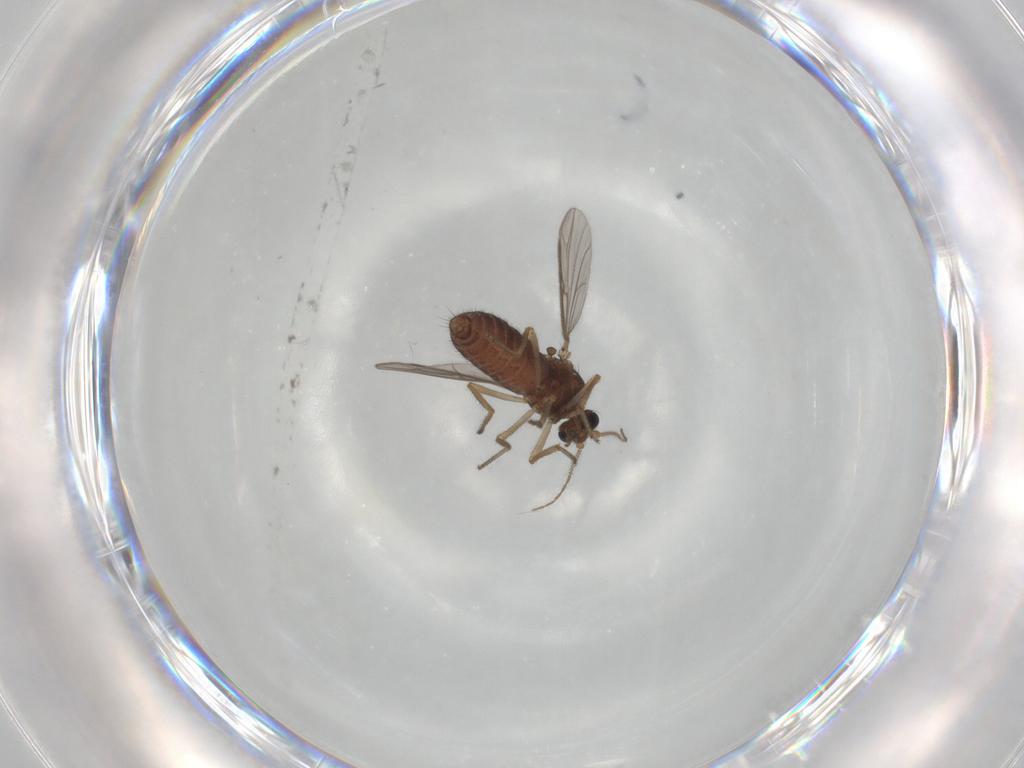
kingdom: Animalia
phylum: Arthropoda
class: Insecta
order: Diptera
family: Ceratopogonidae
